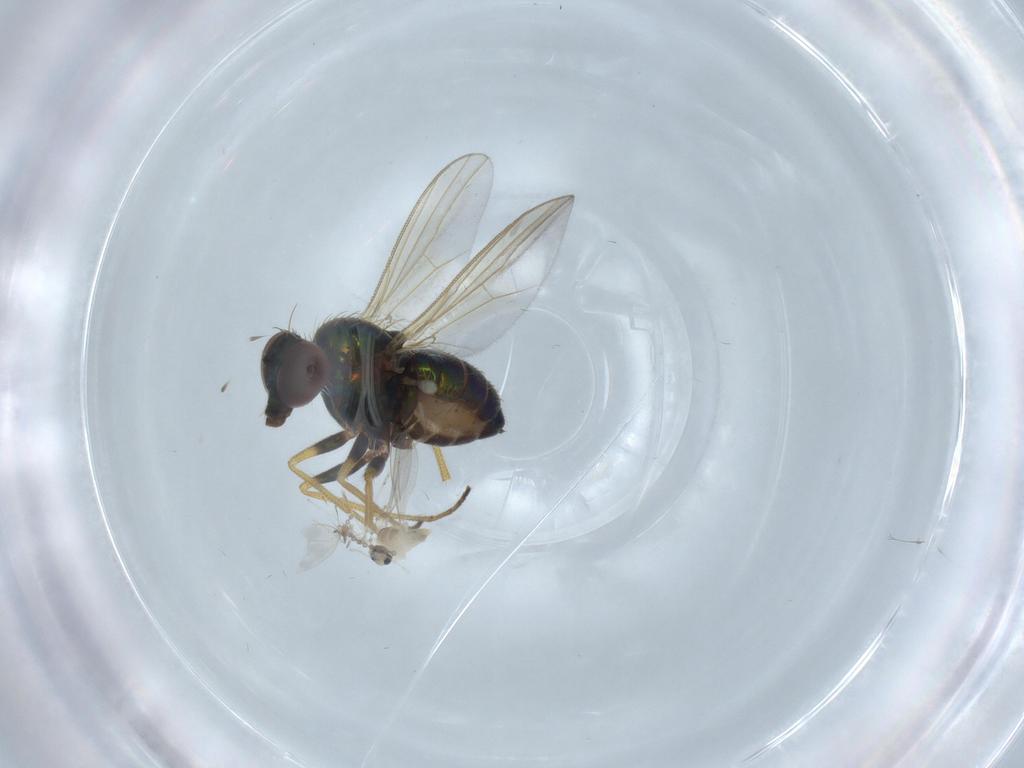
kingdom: Animalia
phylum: Arthropoda
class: Insecta
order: Diptera
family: Dolichopodidae
